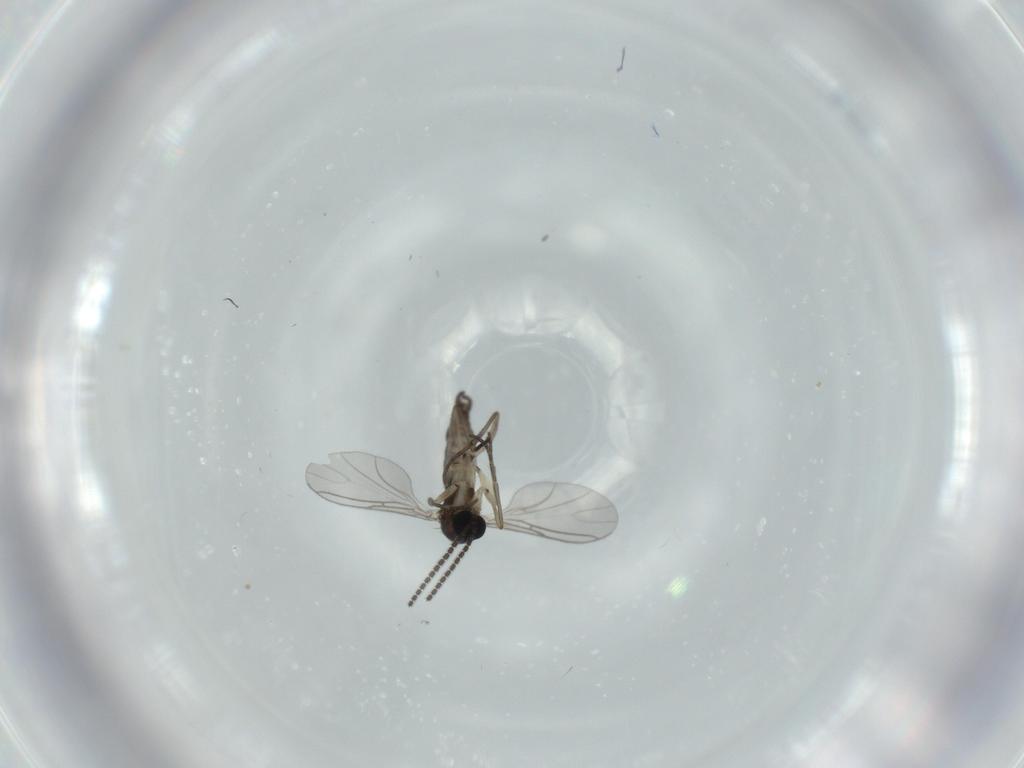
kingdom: Animalia
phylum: Arthropoda
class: Insecta
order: Diptera
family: Sciaridae
